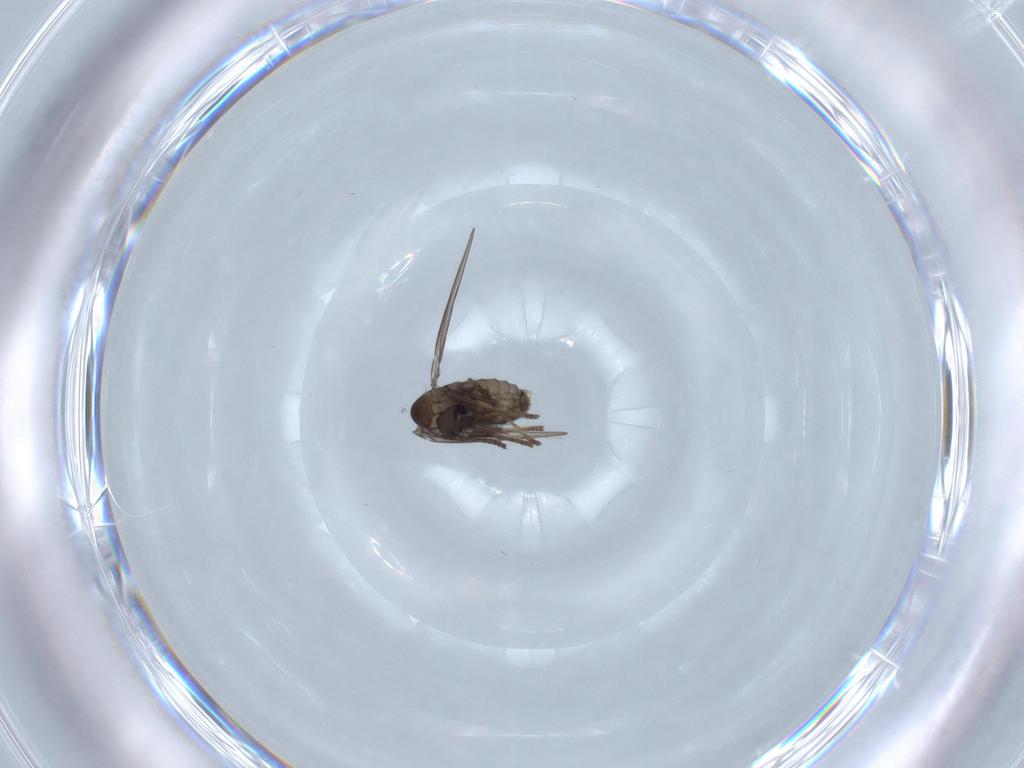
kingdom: Animalia
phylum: Arthropoda
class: Insecta
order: Diptera
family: Psychodidae
